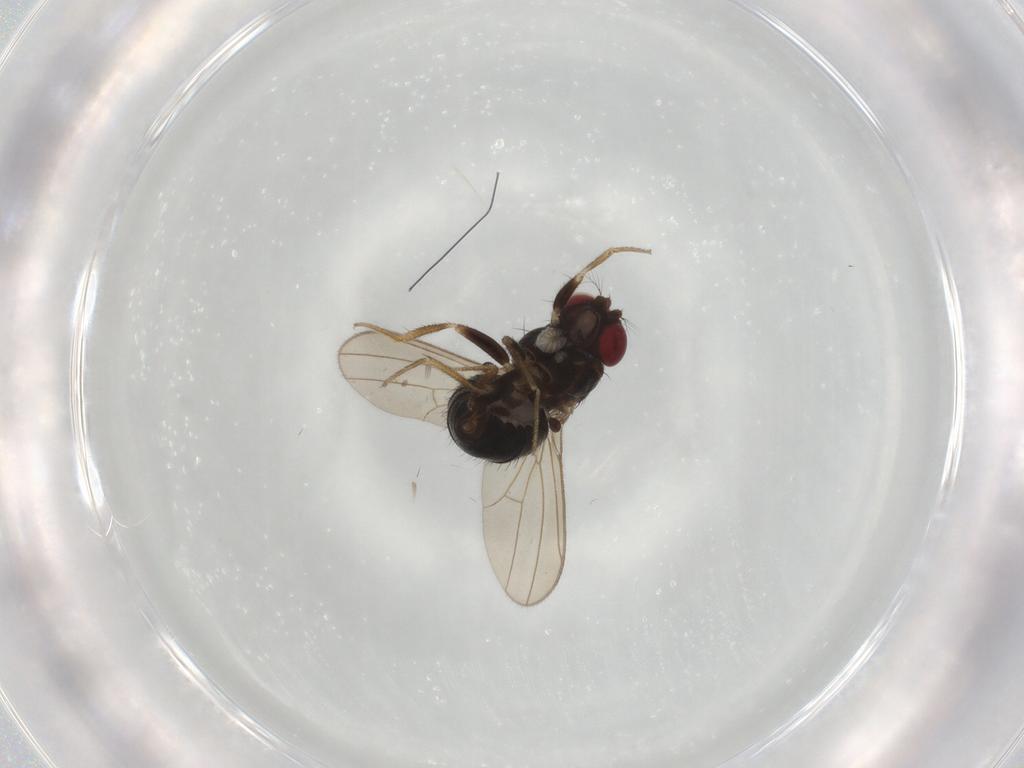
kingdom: Animalia
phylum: Arthropoda
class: Insecta
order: Diptera
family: Drosophilidae
